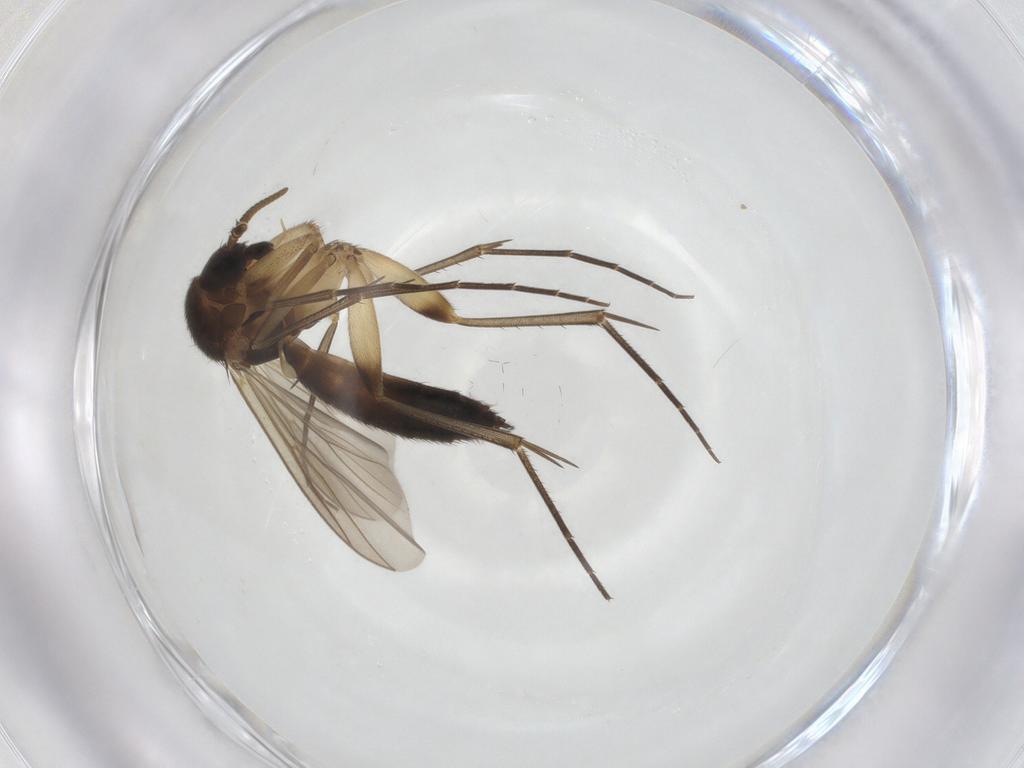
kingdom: Animalia
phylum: Arthropoda
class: Insecta
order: Diptera
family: Mycetophilidae
